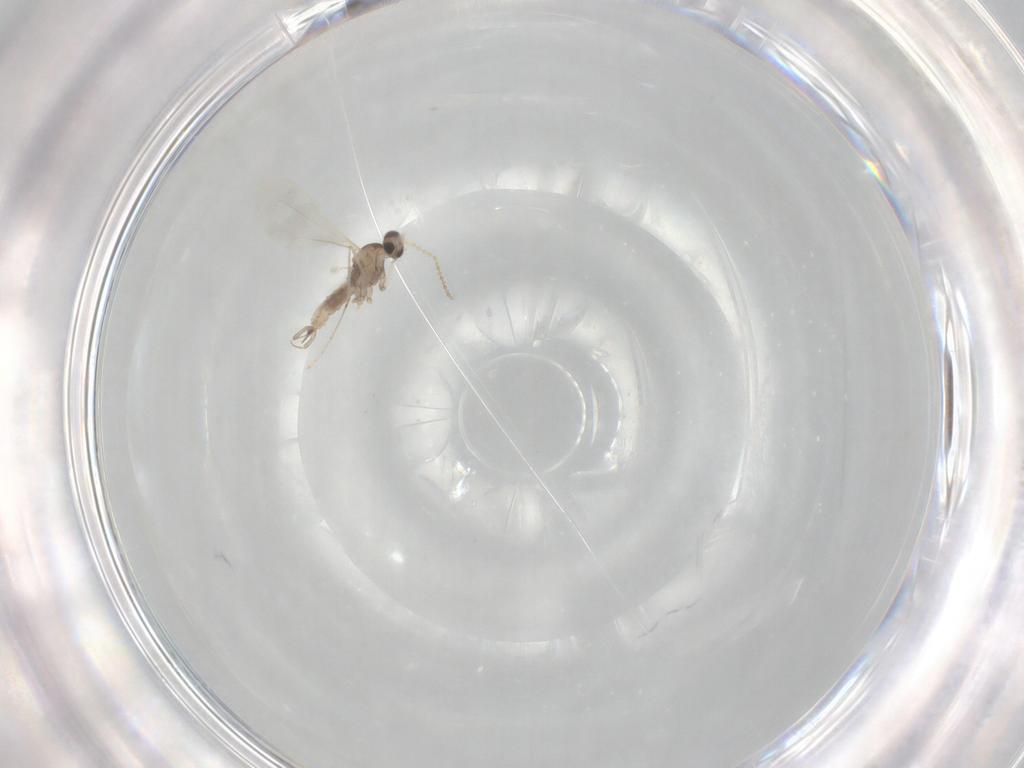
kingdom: Animalia
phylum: Arthropoda
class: Insecta
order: Diptera
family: Cecidomyiidae
